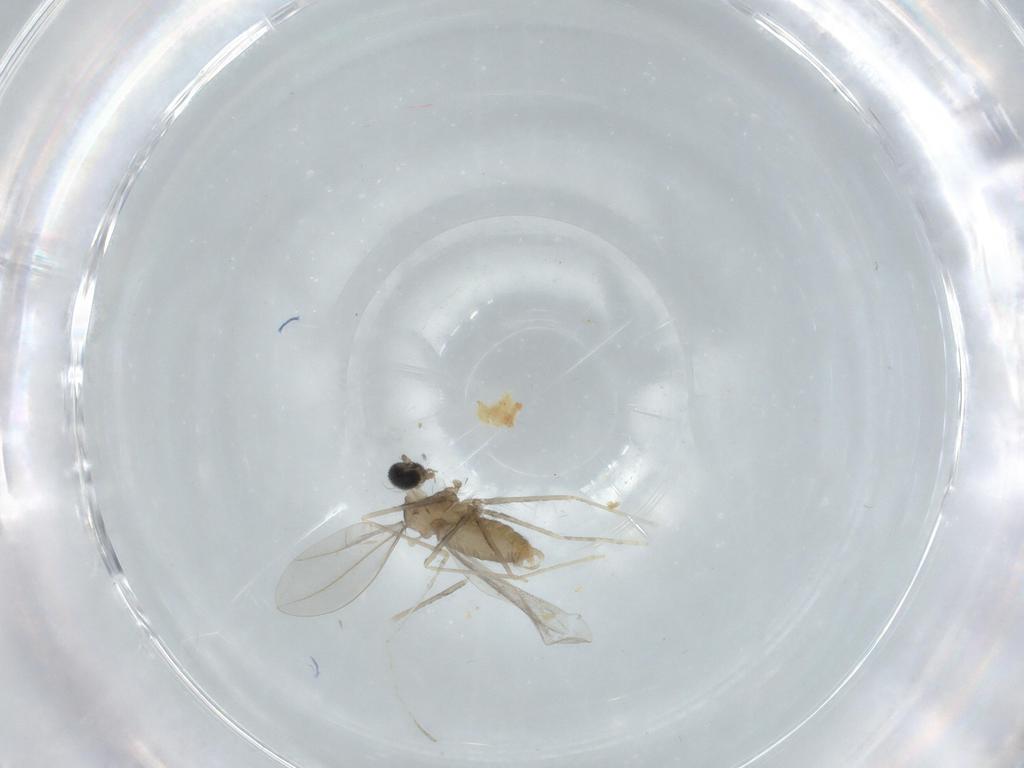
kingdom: Animalia
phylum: Arthropoda
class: Insecta
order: Diptera
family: Cecidomyiidae
